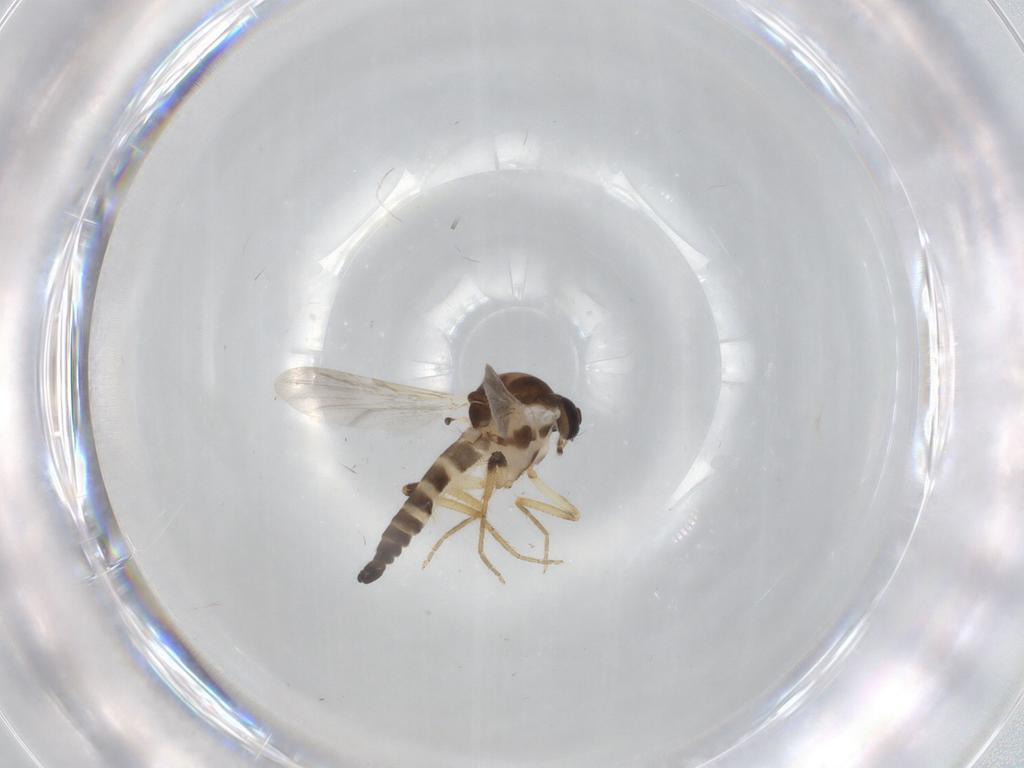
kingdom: Animalia
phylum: Arthropoda
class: Insecta
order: Diptera
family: Ceratopogonidae
